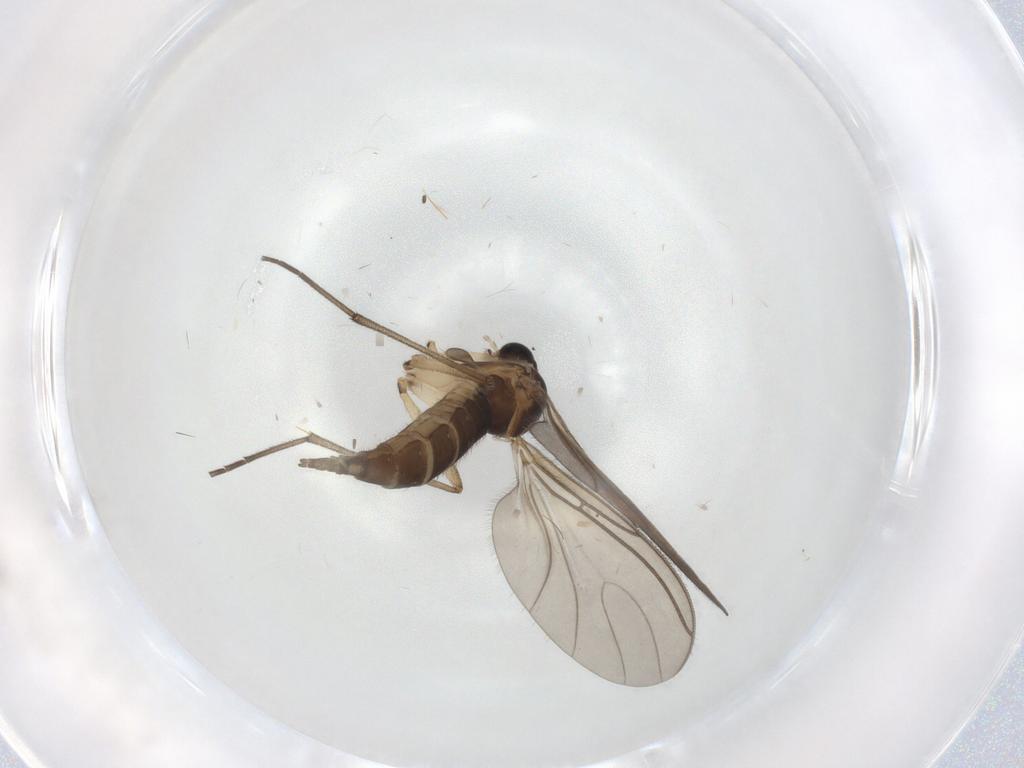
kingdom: Animalia
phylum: Arthropoda
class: Insecta
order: Diptera
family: Sciaridae
